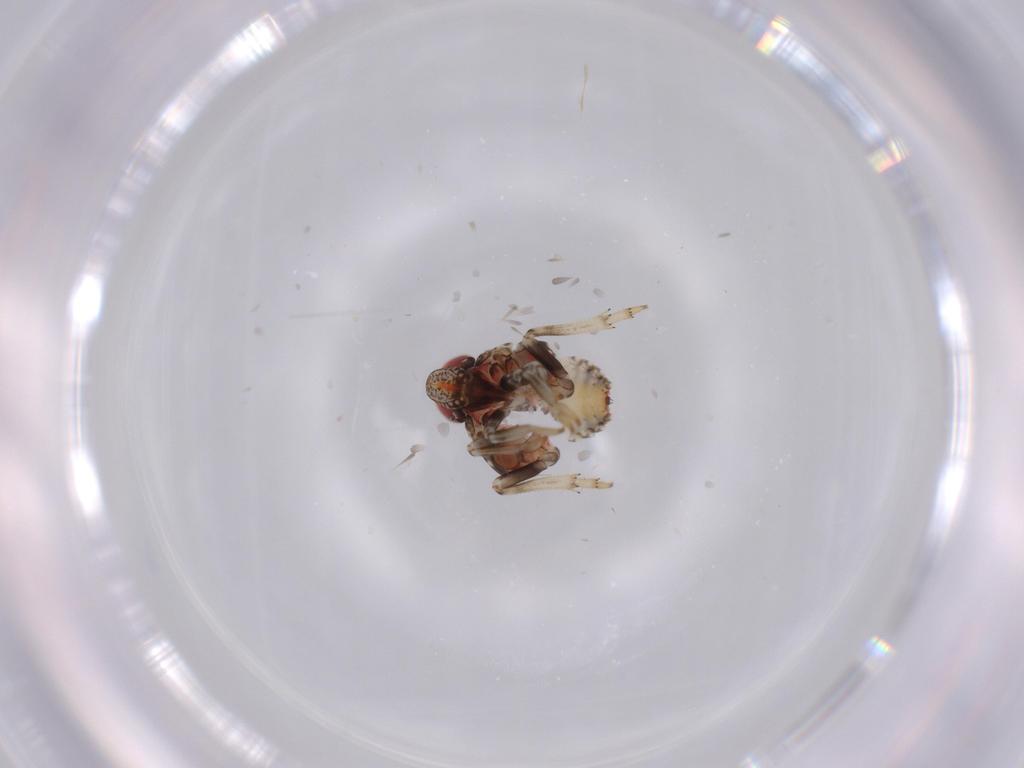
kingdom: Animalia
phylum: Arthropoda
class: Insecta
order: Hemiptera
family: Issidae
